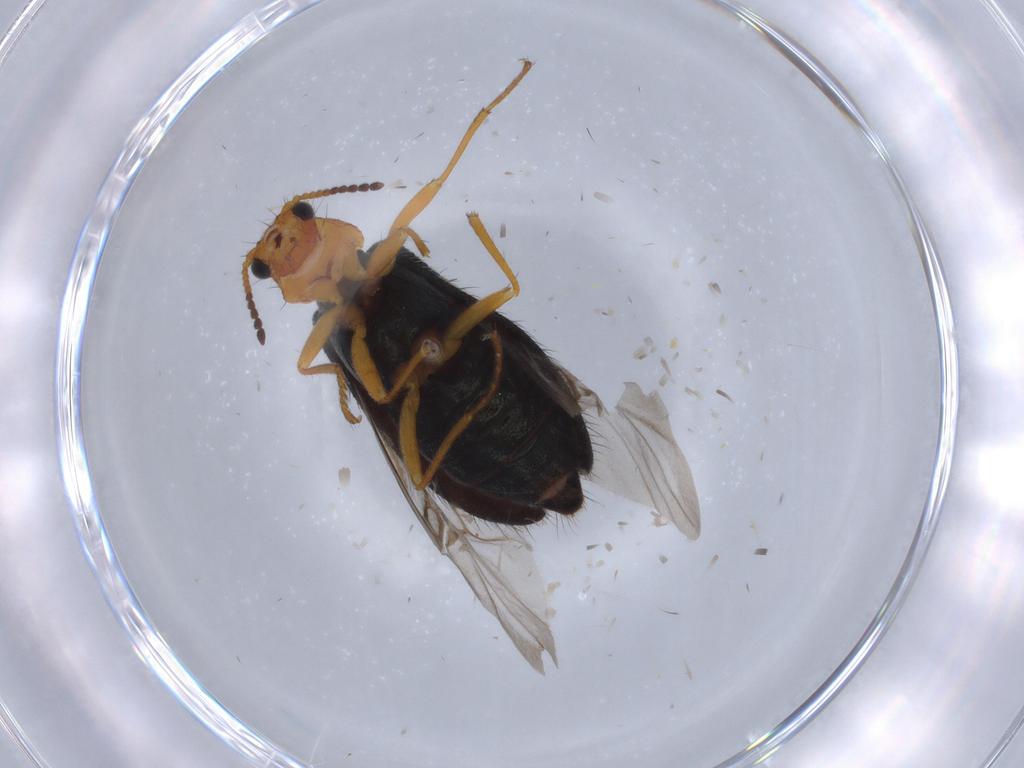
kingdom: Animalia
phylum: Arthropoda
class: Insecta
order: Coleoptera
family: Melyridae
